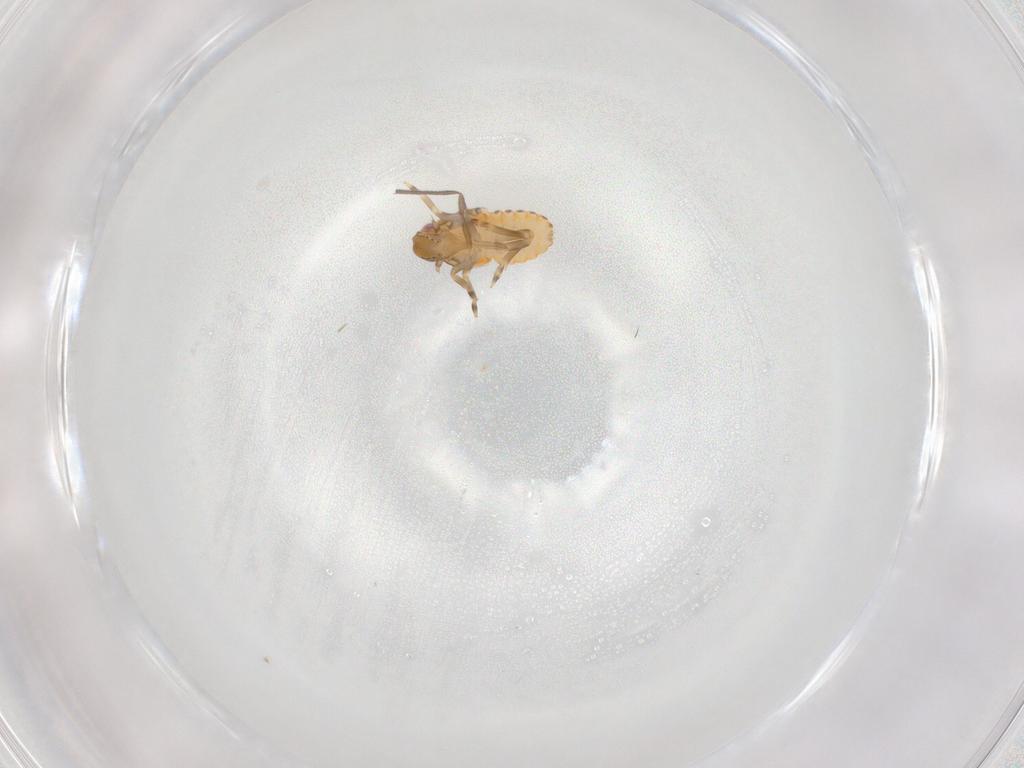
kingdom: Animalia
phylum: Arthropoda
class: Insecta
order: Hemiptera
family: Flatidae
